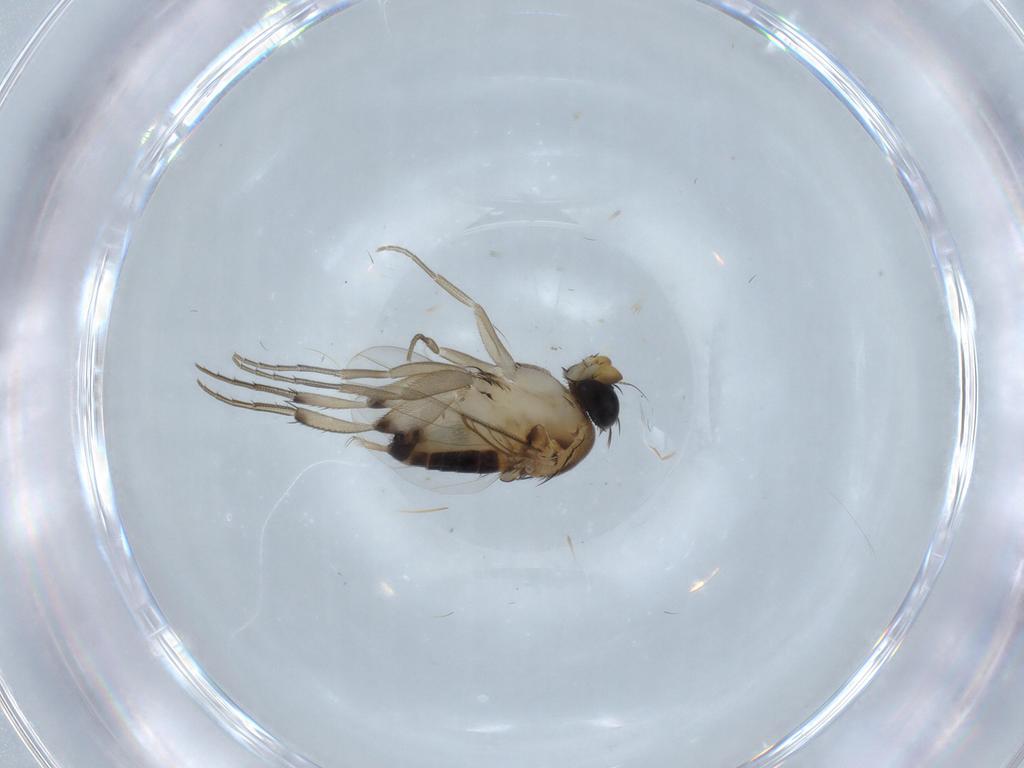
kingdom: Animalia
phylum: Arthropoda
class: Insecta
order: Diptera
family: Phoridae
